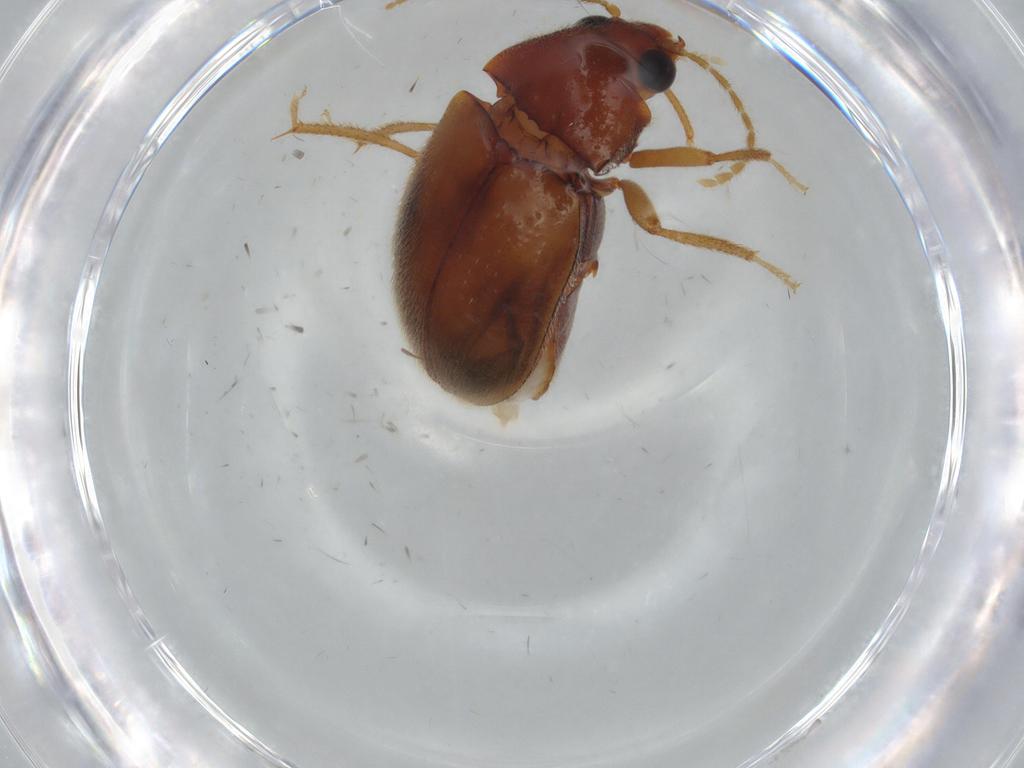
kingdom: Animalia
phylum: Arthropoda
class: Insecta
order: Coleoptera
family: Ptilodactylidae
